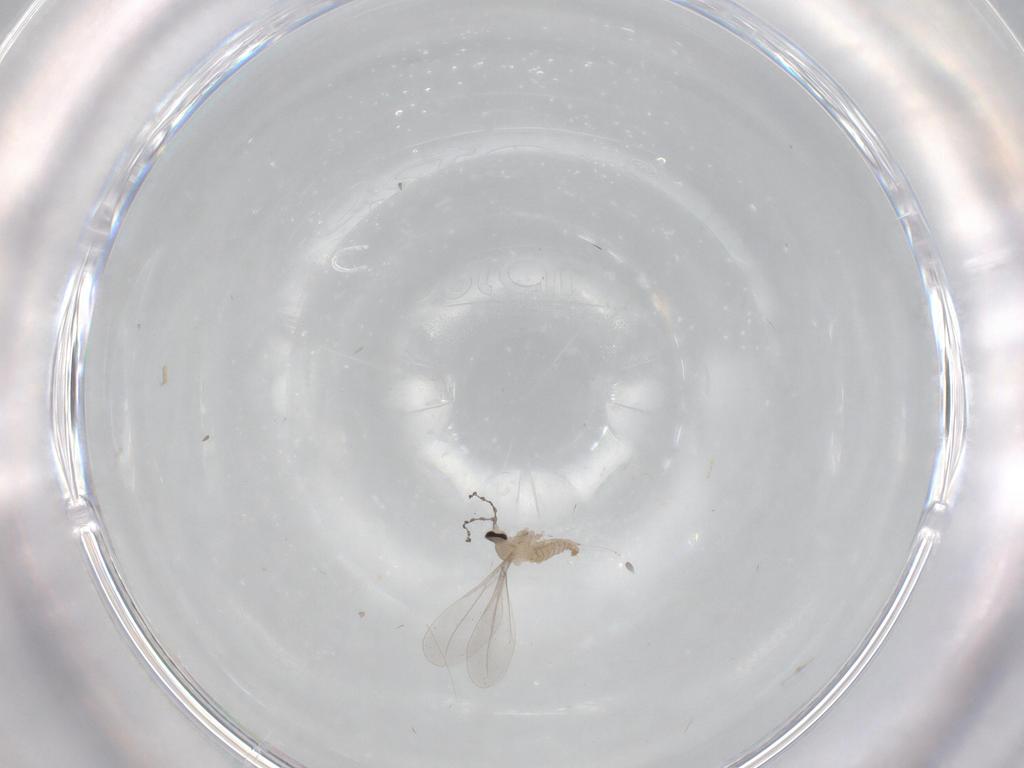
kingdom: Animalia
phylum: Arthropoda
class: Insecta
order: Diptera
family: Cecidomyiidae
